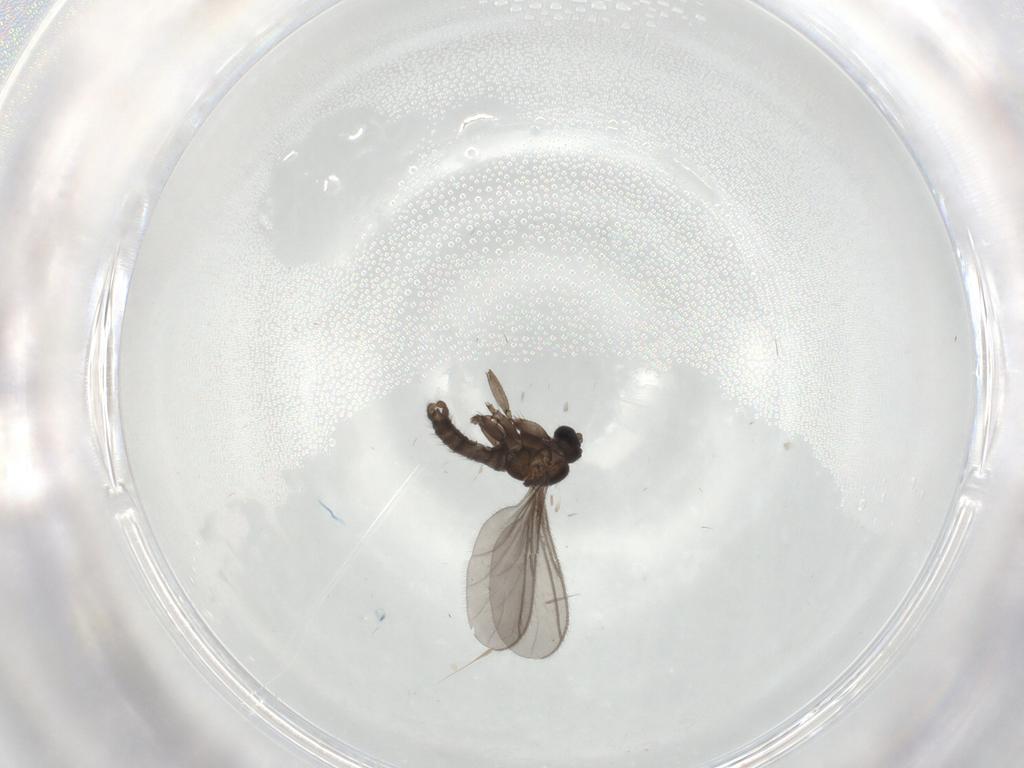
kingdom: Animalia
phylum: Arthropoda
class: Insecta
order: Diptera
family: Sciaridae
